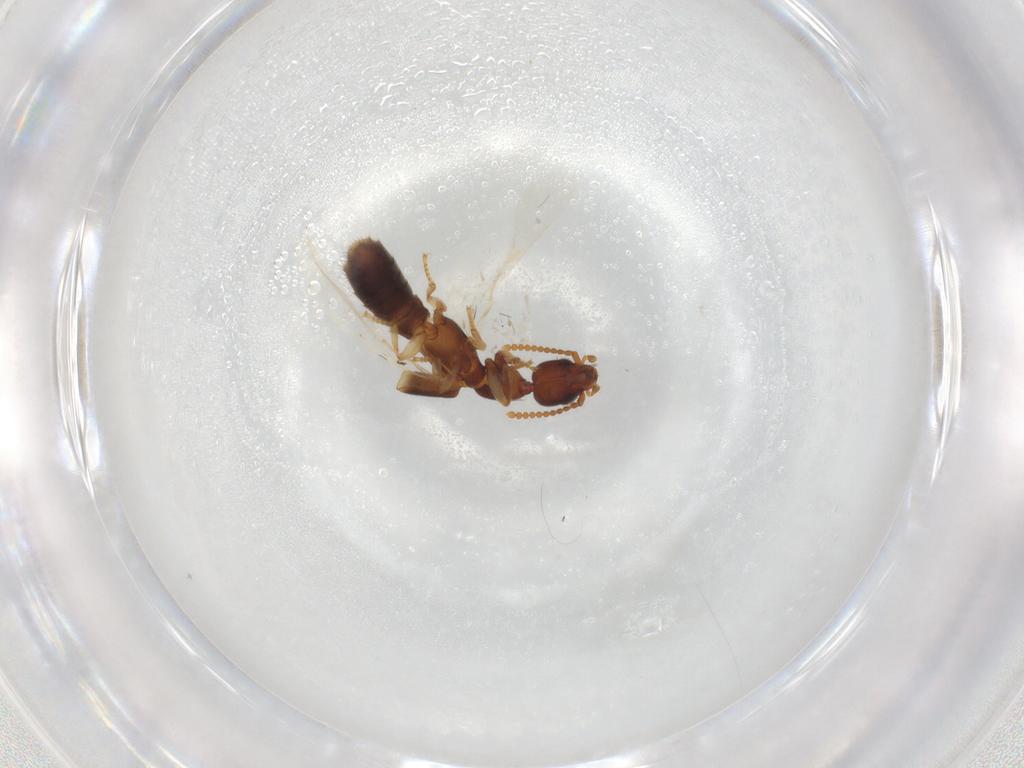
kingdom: Animalia
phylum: Arthropoda
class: Insecta
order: Coleoptera
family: Staphylinidae
